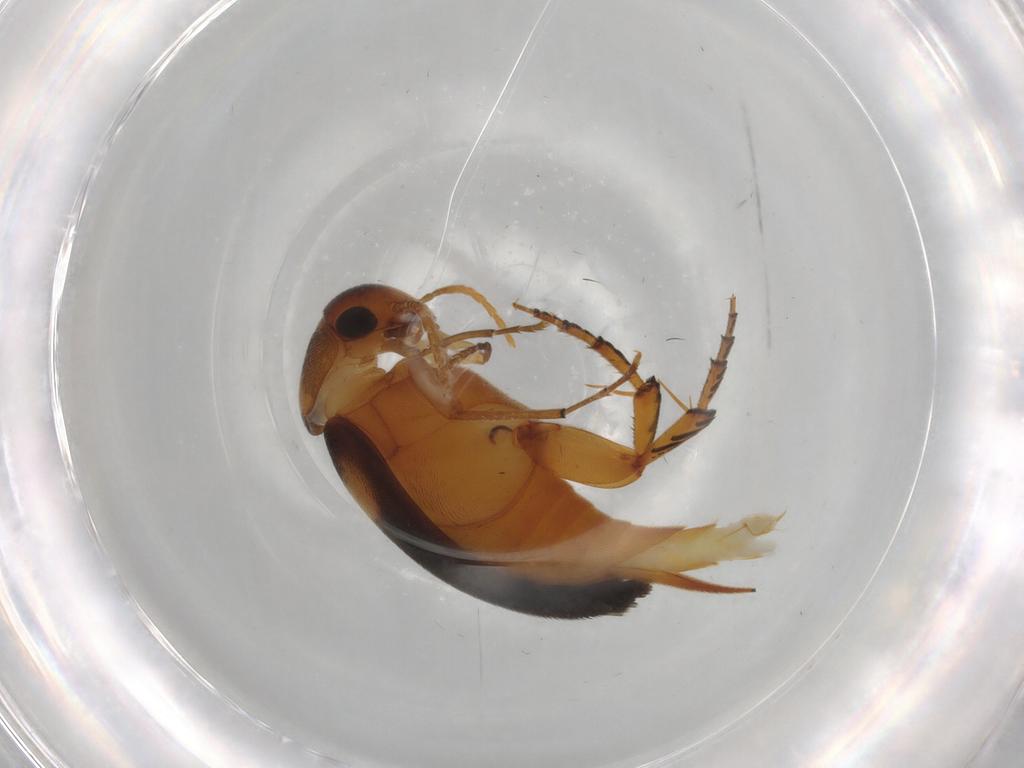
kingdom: Animalia
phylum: Arthropoda
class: Insecta
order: Coleoptera
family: Mordellidae
